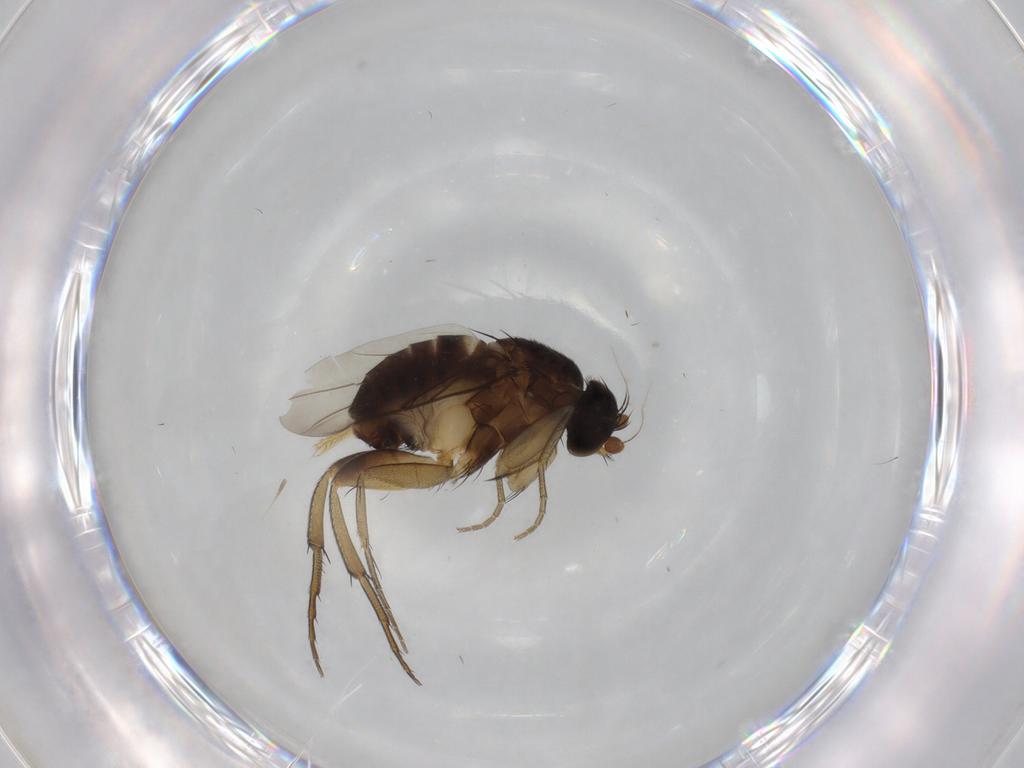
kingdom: Animalia
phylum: Arthropoda
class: Insecta
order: Diptera
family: Phoridae
